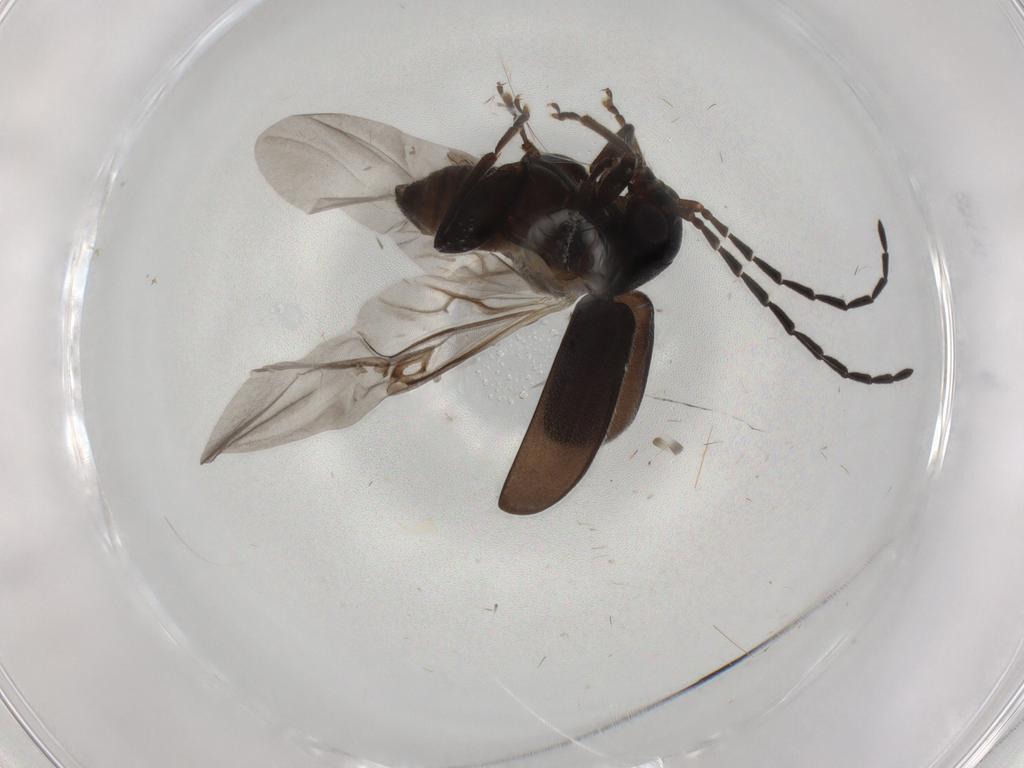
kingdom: Animalia
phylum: Arthropoda
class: Insecta
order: Coleoptera
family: Chrysomelidae
